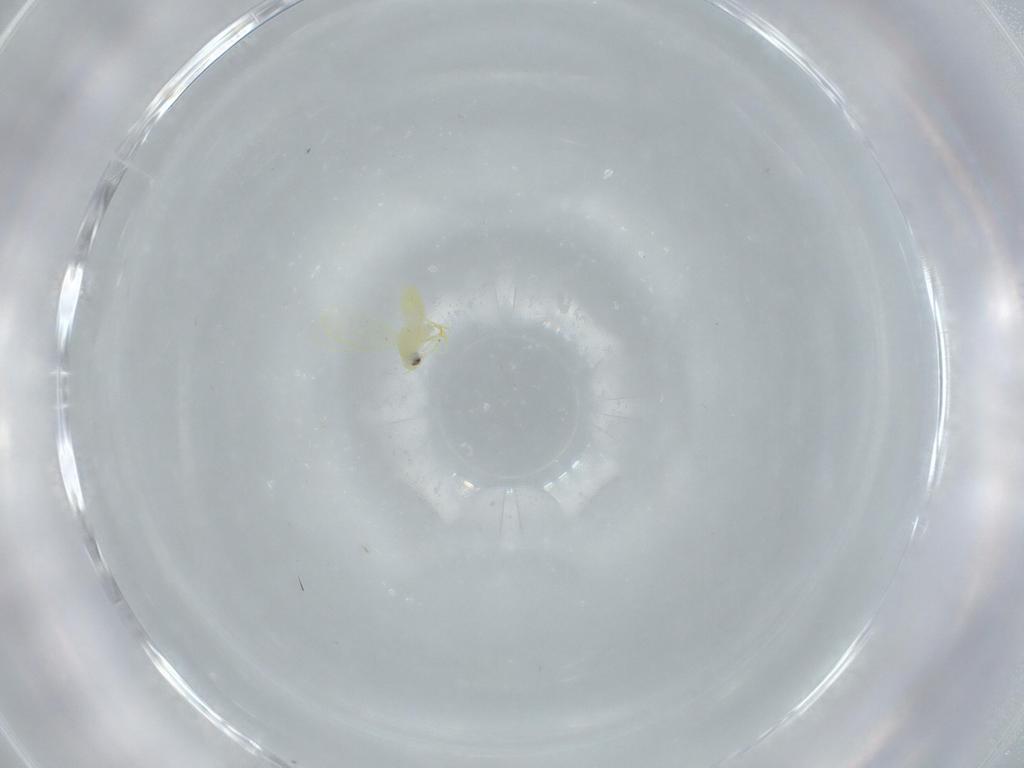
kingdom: Animalia
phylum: Arthropoda
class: Insecta
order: Hemiptera
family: Aleyrodidae
